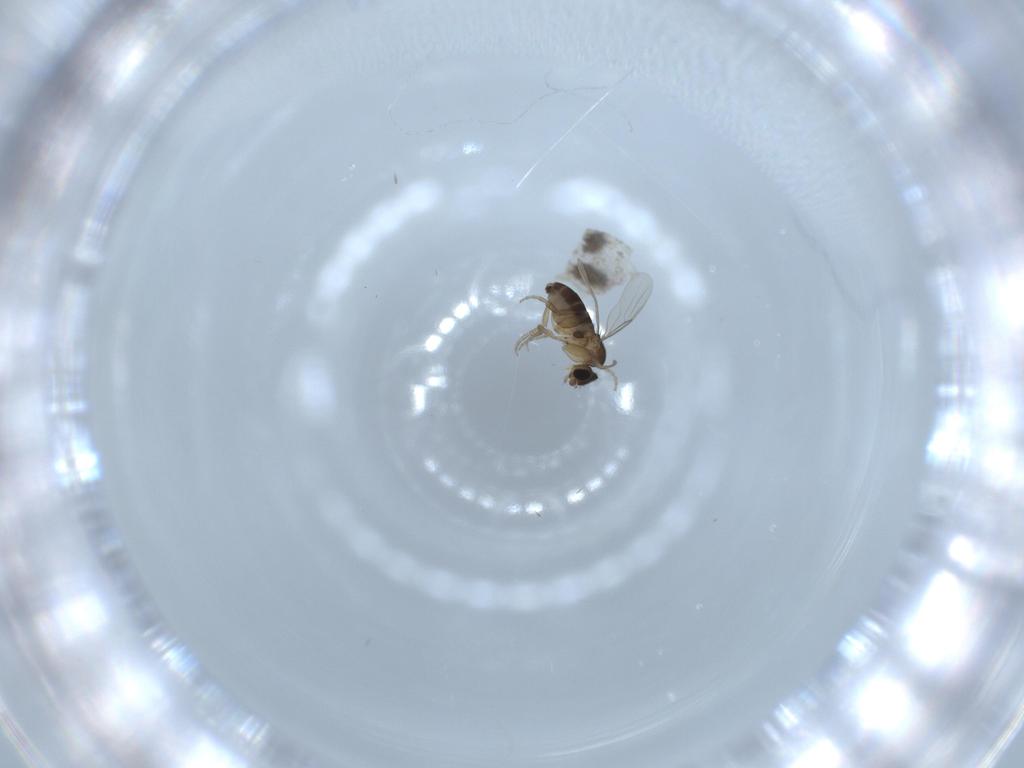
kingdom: Animalia
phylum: Arthropoda
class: Insecta
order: Diptera
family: Phoridae
